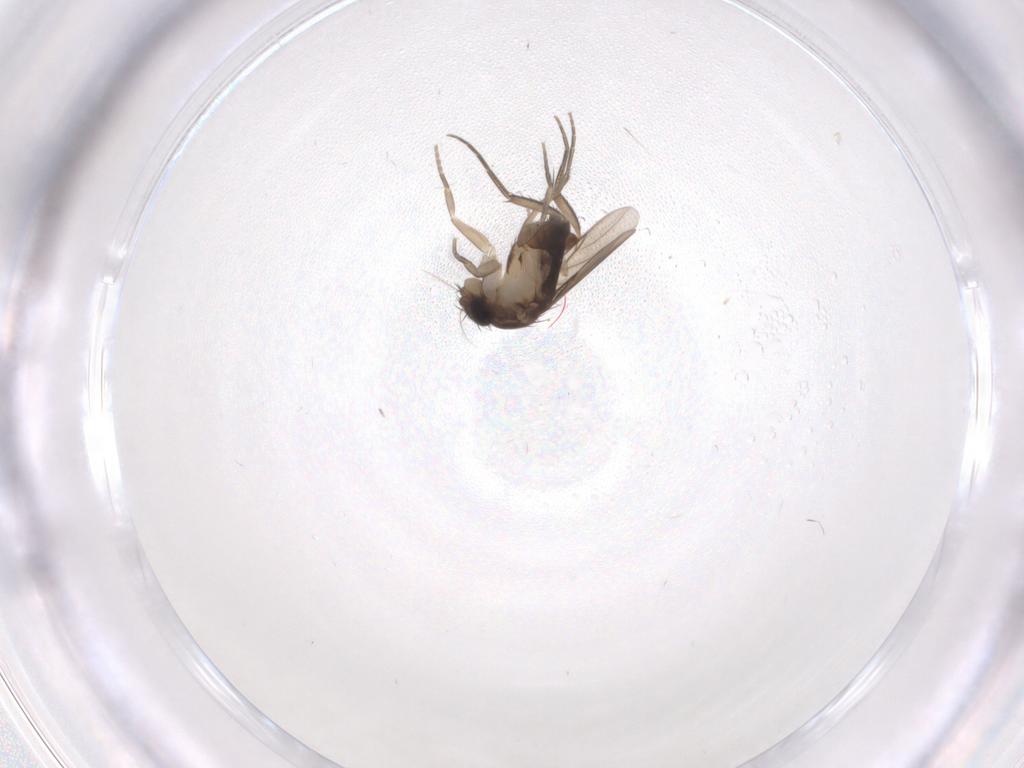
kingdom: Animalia
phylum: Arthropoda
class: Insecta
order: Diptera
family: Phoridae
